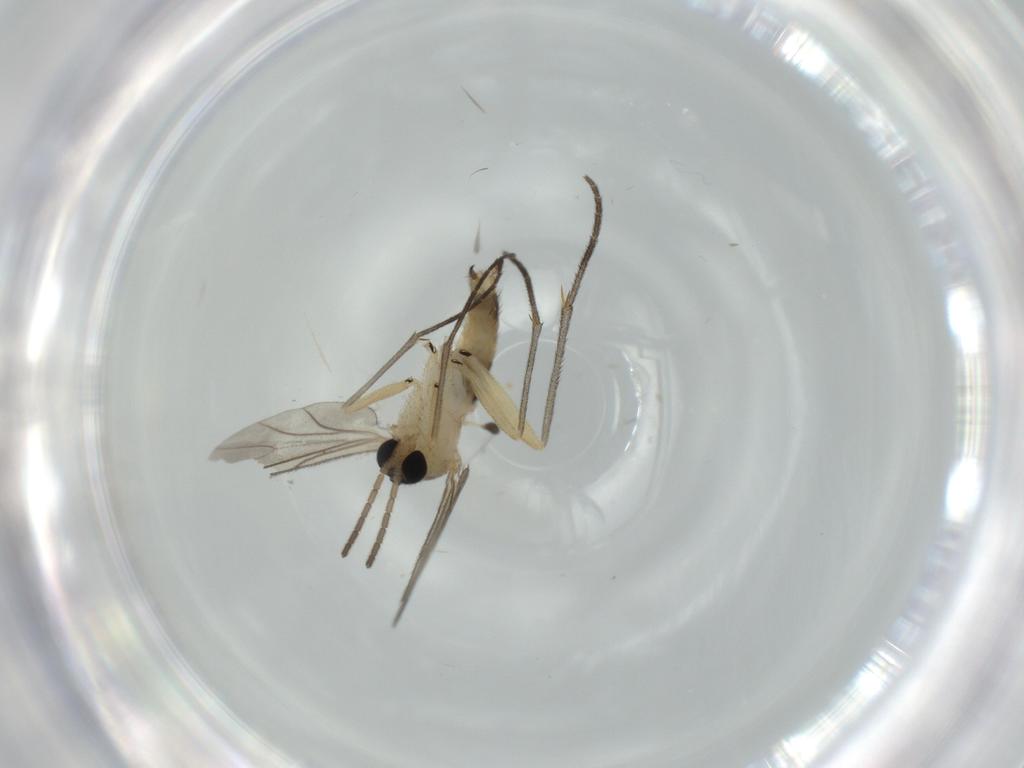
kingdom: Animalia
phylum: Arthropoda
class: Insecta
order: Diptera
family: Sciaridae
